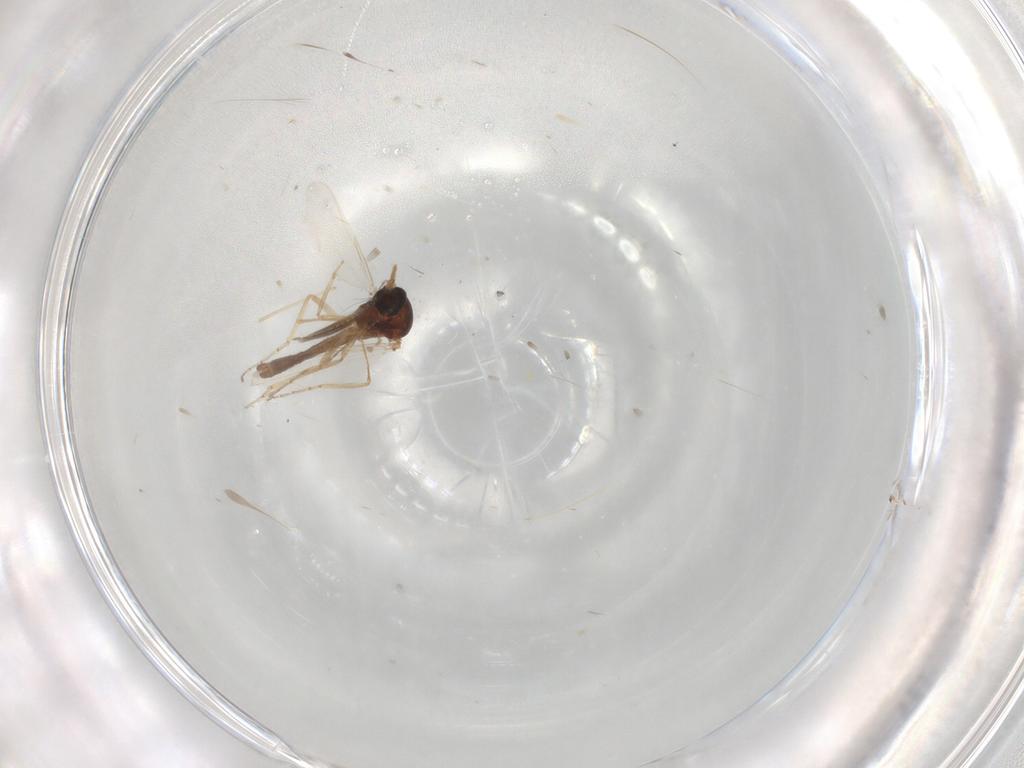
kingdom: Animalia
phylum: Arthropoda
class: Insecta
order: Diptera
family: Ceratopogonidae
